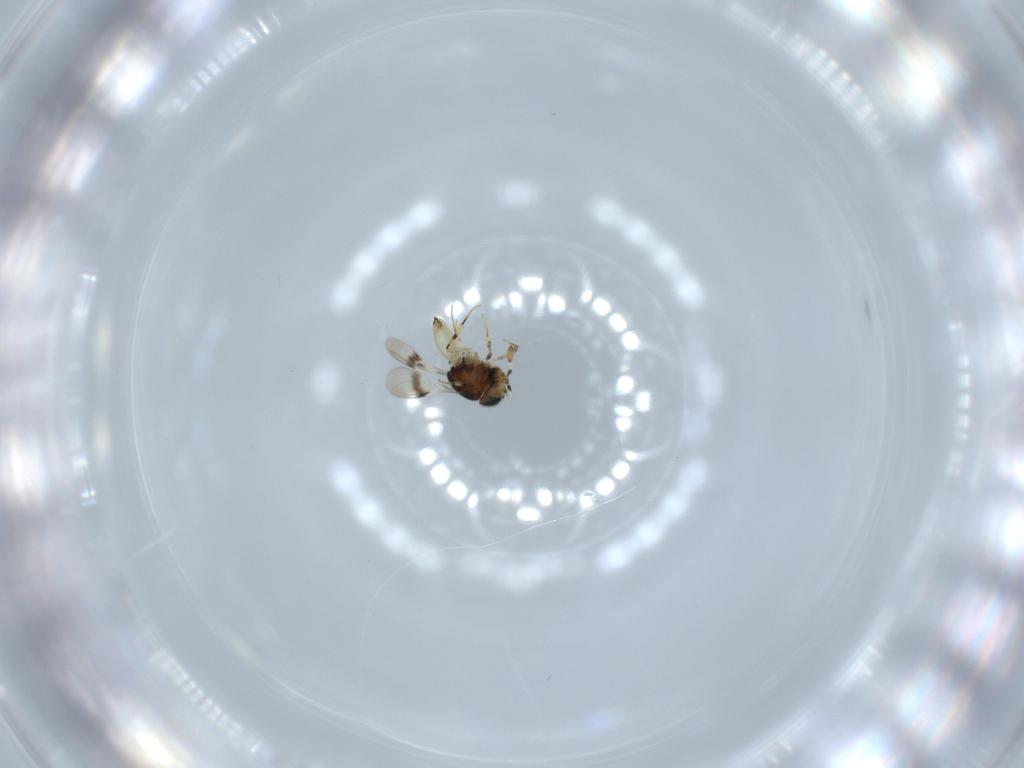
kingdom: Animalia
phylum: Arthropoda
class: Insecta
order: Hymenoptera
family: Scelionidae
